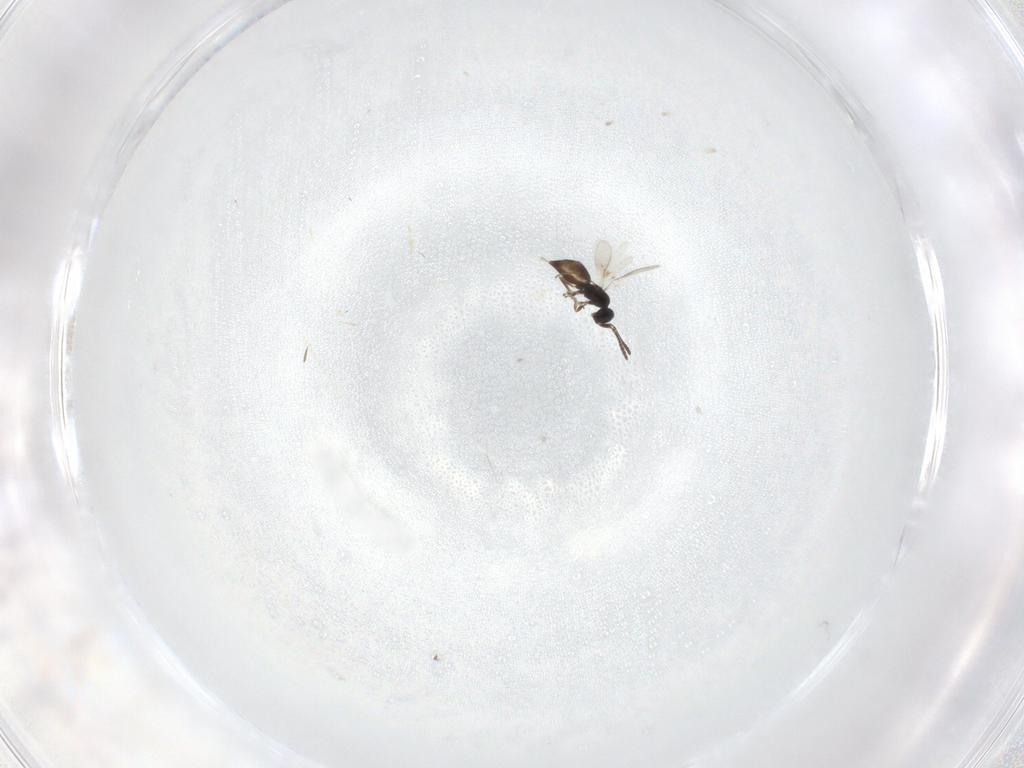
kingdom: Animalia
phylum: Arthropoda
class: Insecta
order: Hymenoptera
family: Scelionidae
